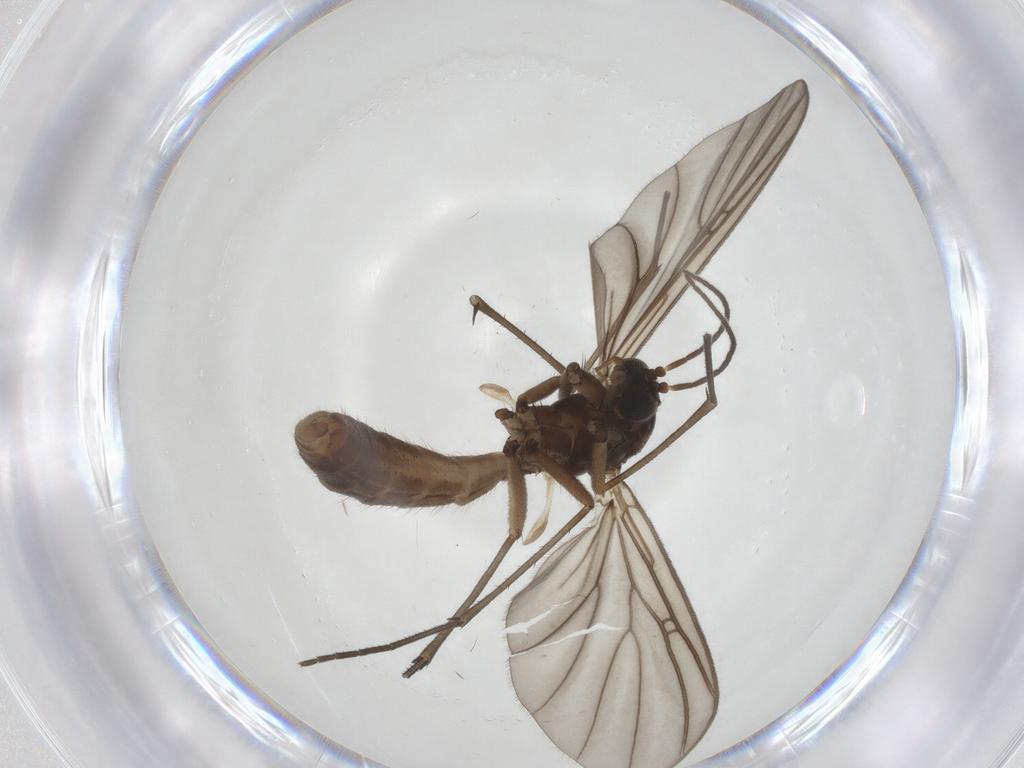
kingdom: Animalia
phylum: Arthropoda
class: Insecta
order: Diptera
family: Mycetophilidae
